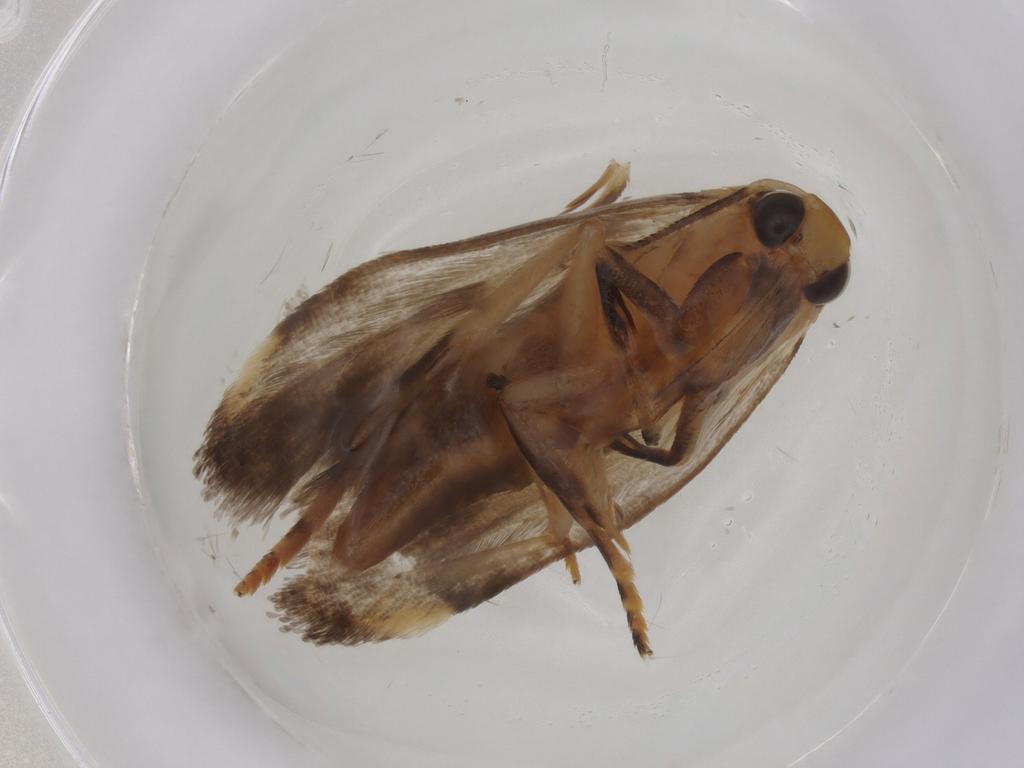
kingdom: Animalia
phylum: Arthropoda
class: Insecta
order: Lepidoptera
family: Gelechiidae
